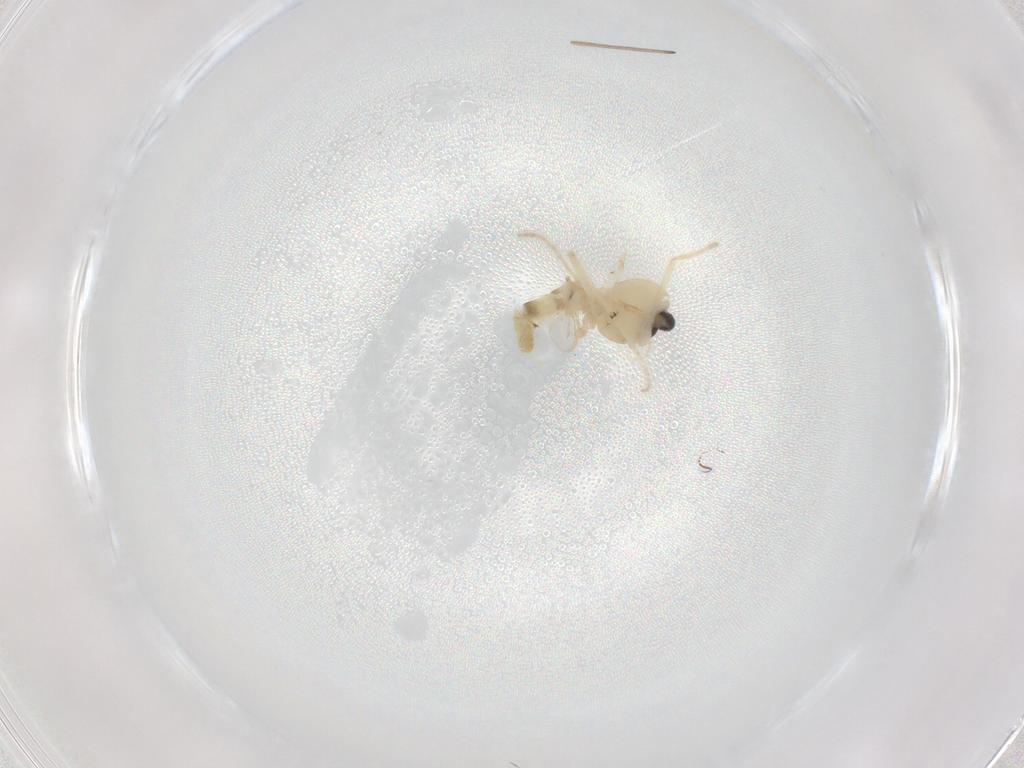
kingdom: Animalia
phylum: Arthropoda
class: Insecta
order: Diptera
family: Chironomidae
